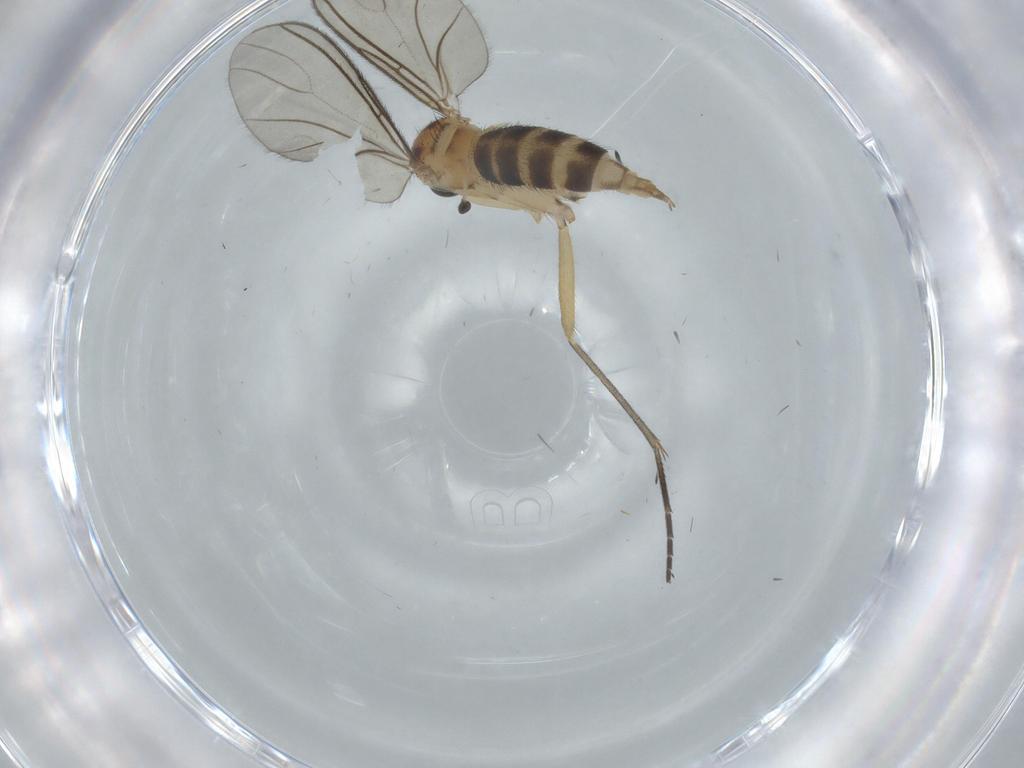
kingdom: Animalia
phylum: Arthropoda
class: Insecta
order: Diptera
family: Sciaridae
